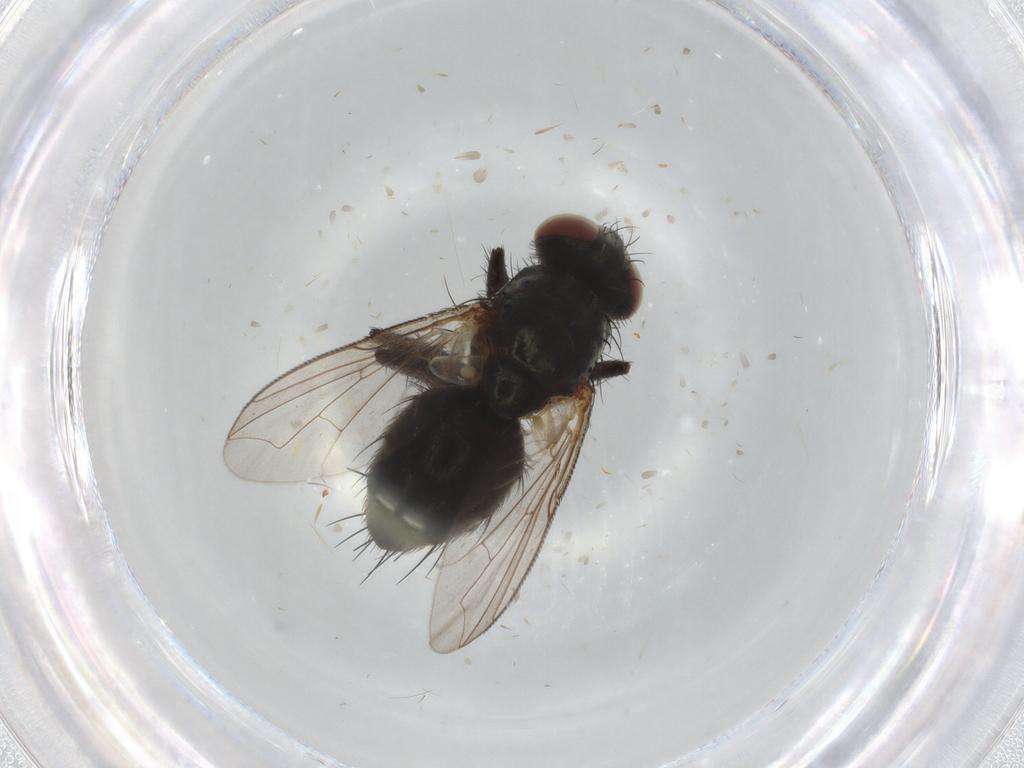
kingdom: Animalia
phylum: Arthropoda
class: Insecta
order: Diptera
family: Sarcophagidae
